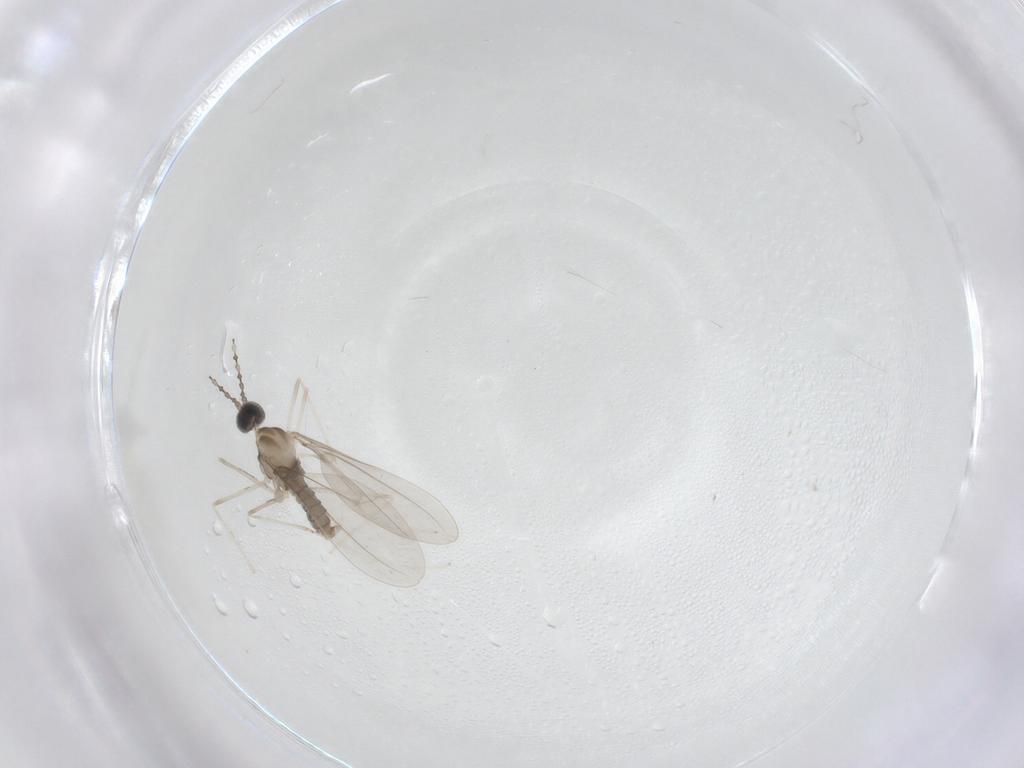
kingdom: Animalia
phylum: Arthropoda
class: Insecta
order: Diptera
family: Cecidomyiidae
